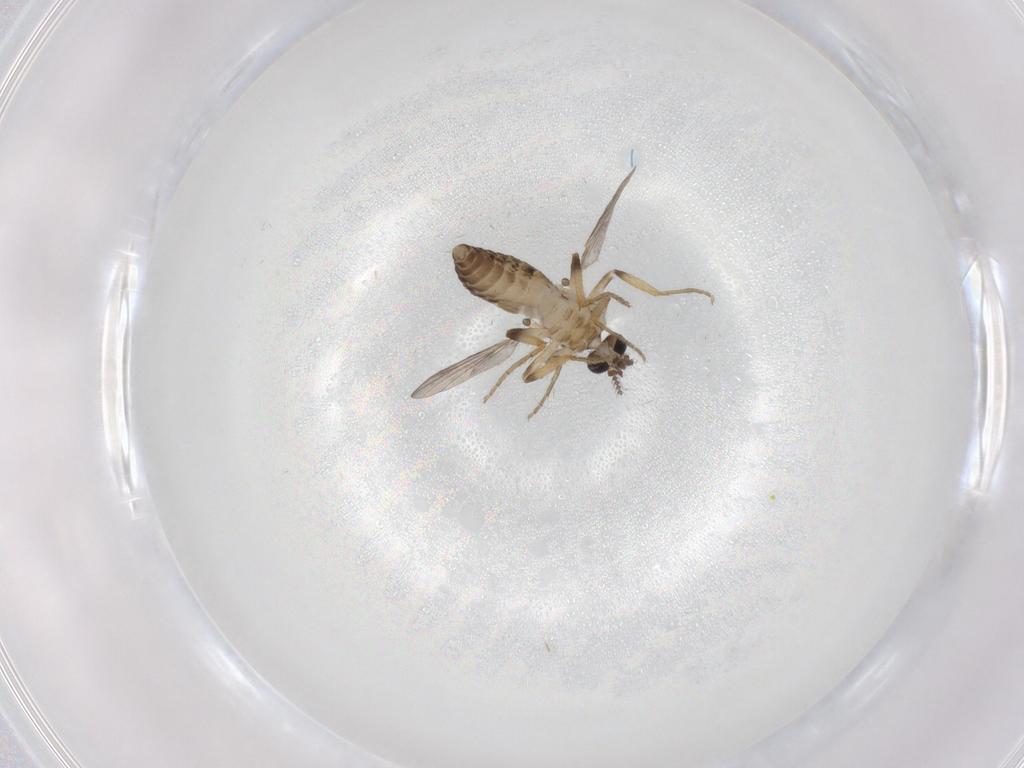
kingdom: Animalia
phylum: Arthropoda
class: Insecta
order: Diptera
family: Ceratopogonidae
